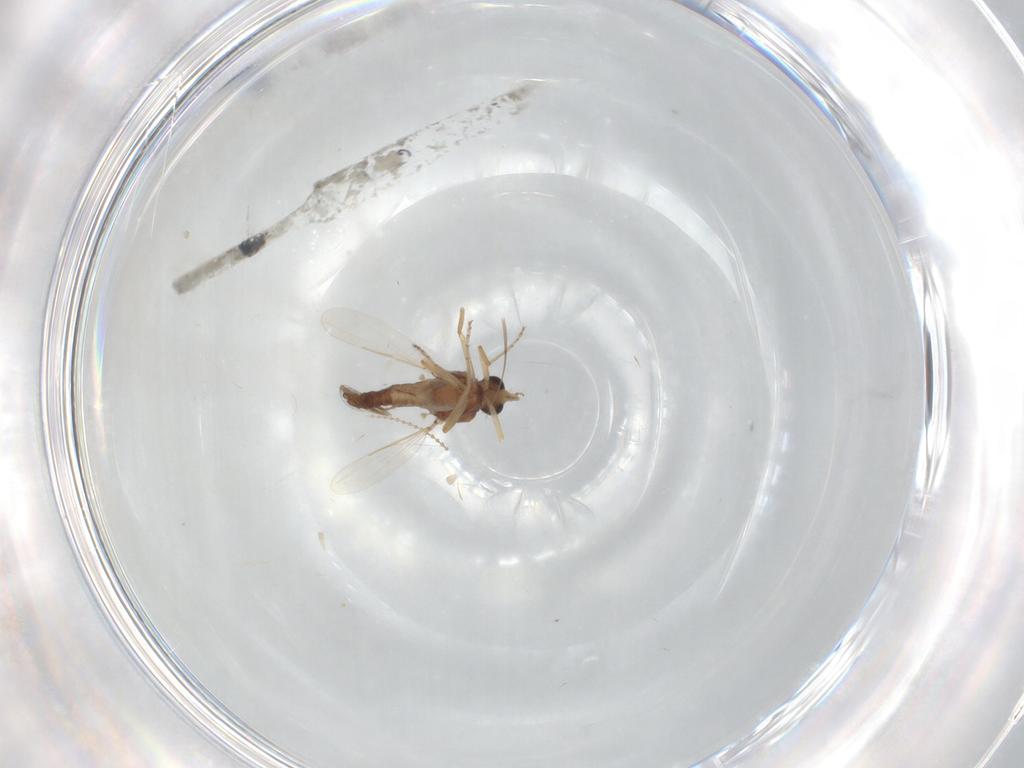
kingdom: Animalia
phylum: Arthropoda
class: Insecta
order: Diptera
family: Ceratopogonidae
